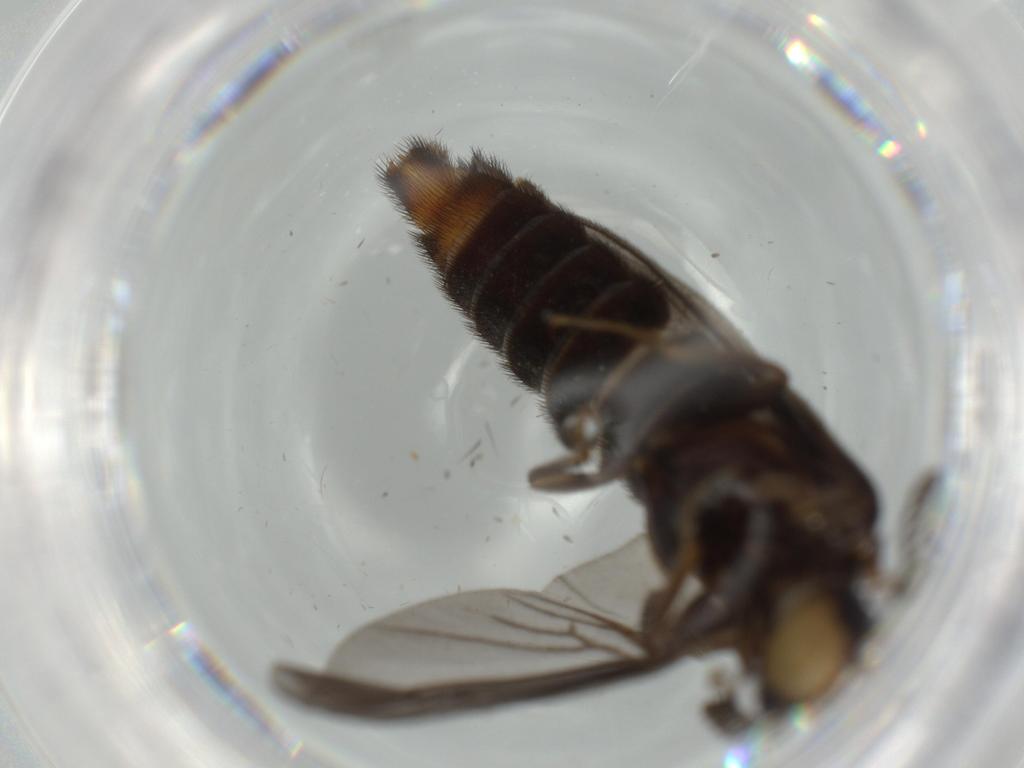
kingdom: Animalia
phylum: Arthropoda
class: Insecta
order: Coleoptera
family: Phengodidae
